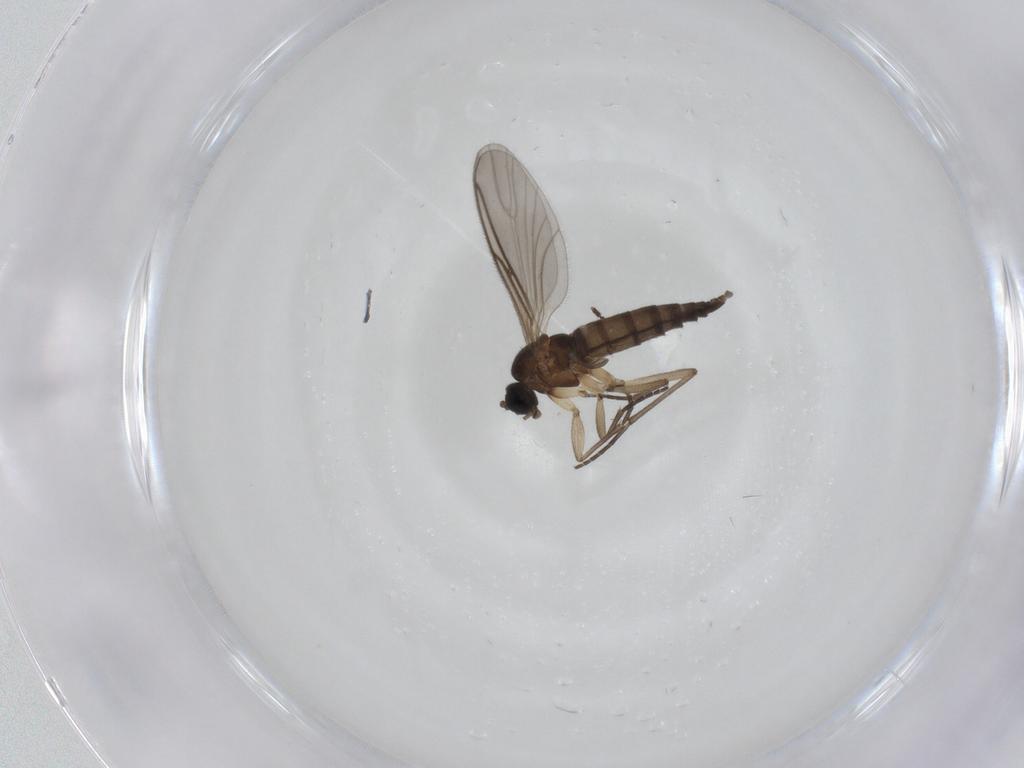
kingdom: Animalia
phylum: Arthropoda
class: Insecta
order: Diptera
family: Sciaridae
